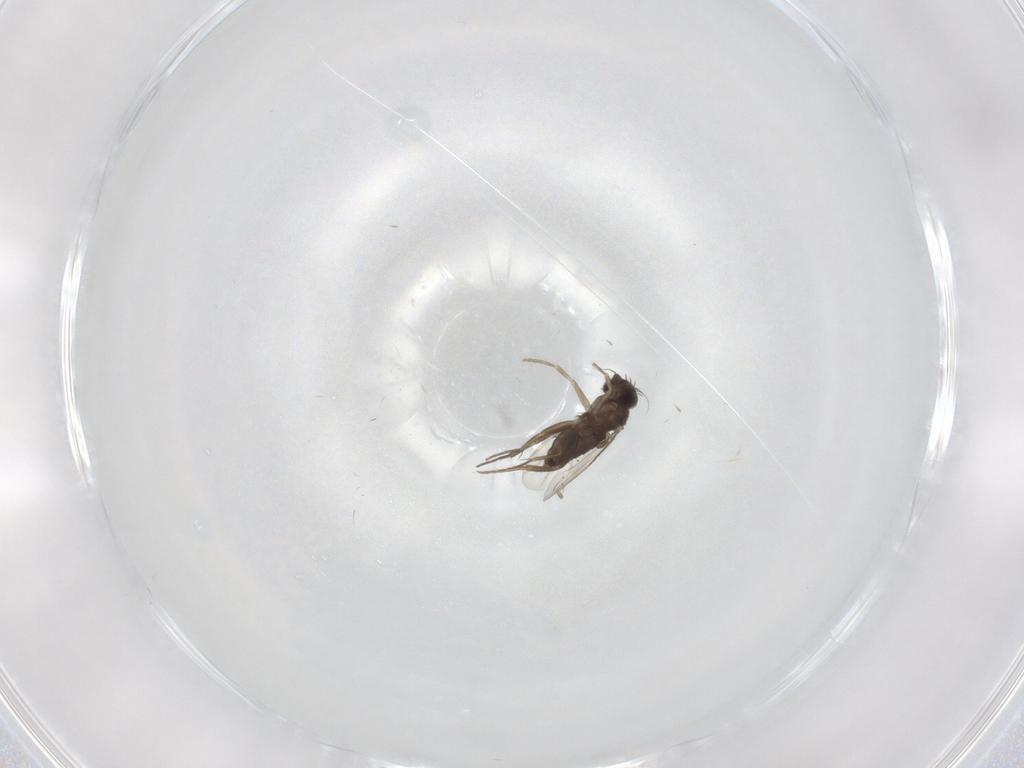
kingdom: Animalia
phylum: Arthropoda
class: Insecta
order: Diptera
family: Phoridae
